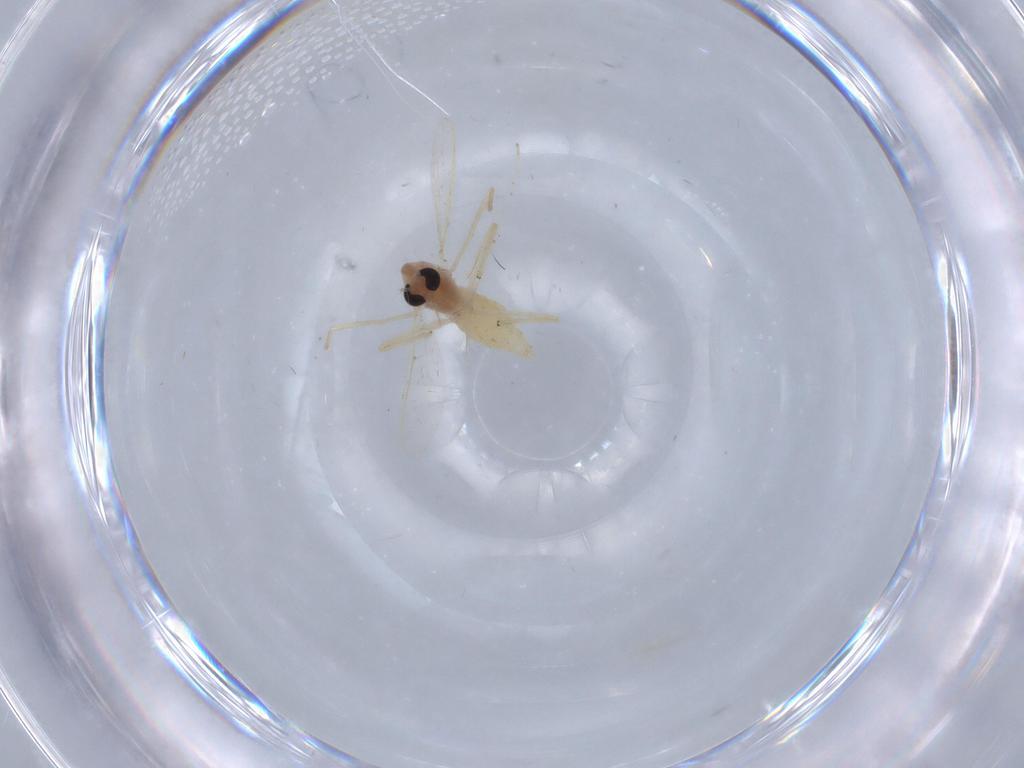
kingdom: Animalia
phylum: Arthropoda
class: Insecta
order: Diptera
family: Chironomidae
